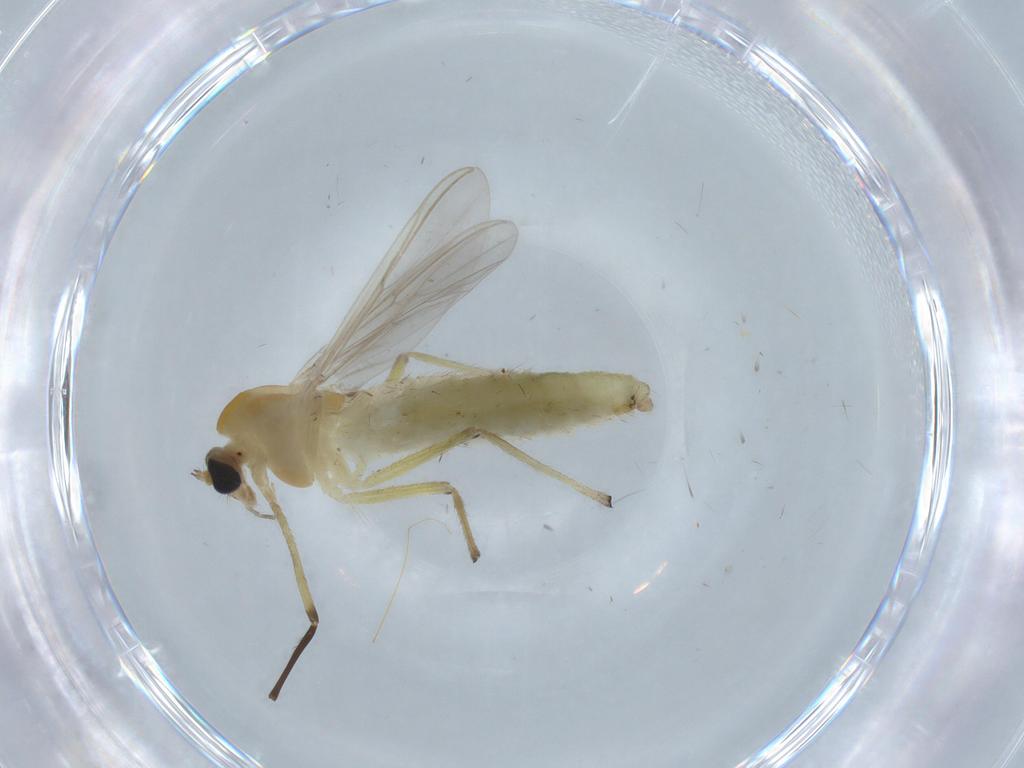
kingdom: Animalia
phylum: Arthropoda
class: Insecta
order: Diptera
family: Chironomidae
